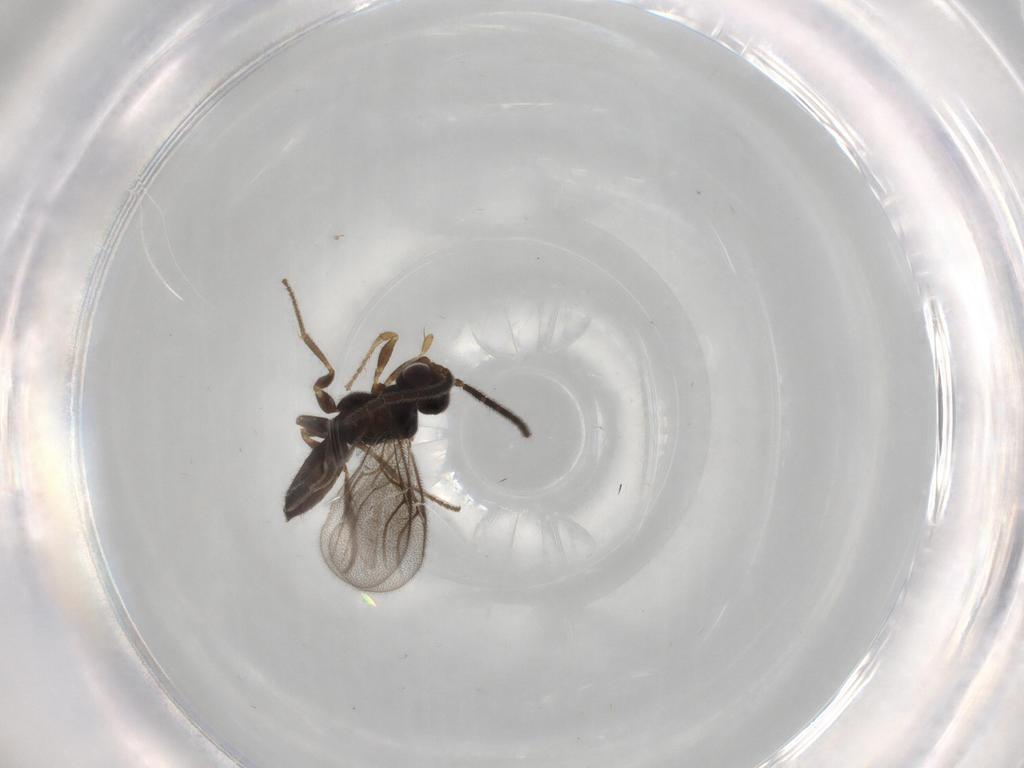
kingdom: Animalia
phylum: Arthropoda
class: Insecta
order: Hymenoptera
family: Dryinidae
